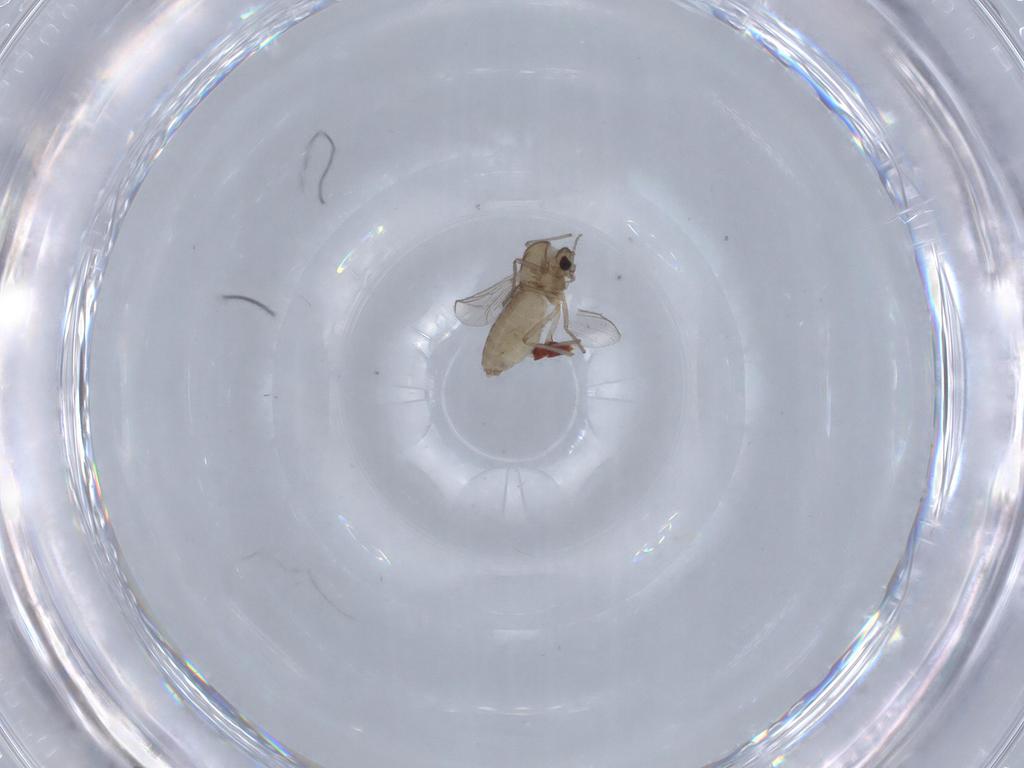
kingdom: Animalia
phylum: Arthropoda
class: Insecta
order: Diptera
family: Chironomidae
